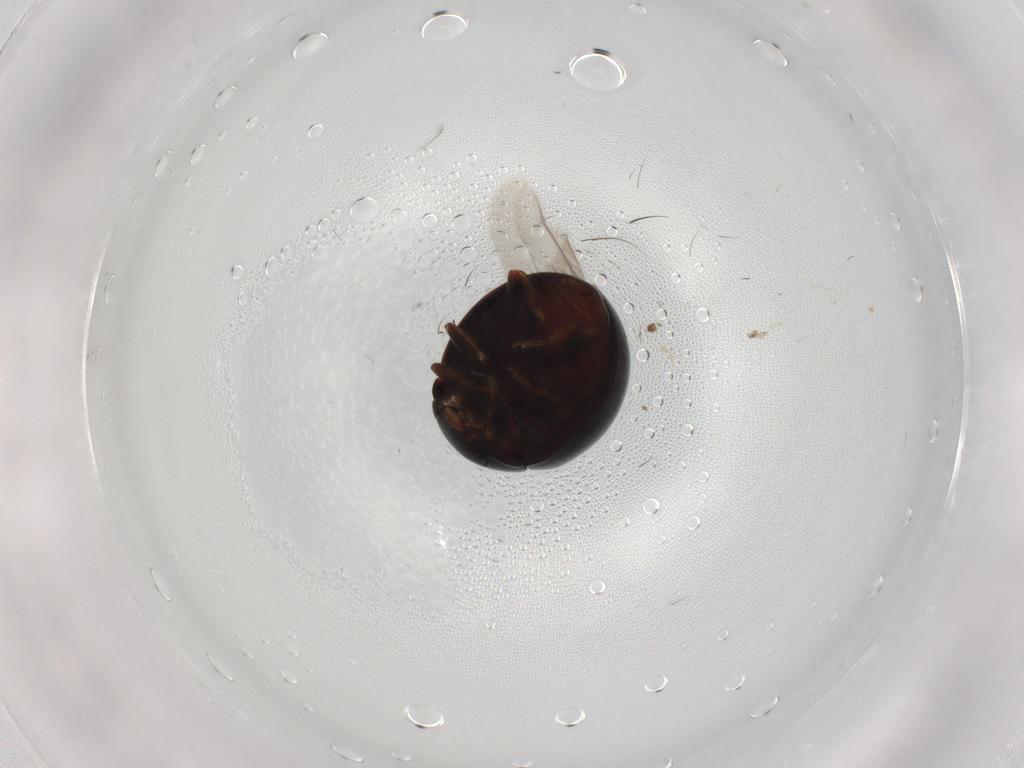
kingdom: Animalia
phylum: Arthropoda
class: Insecta
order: Coleoptera
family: Coccinellidae
